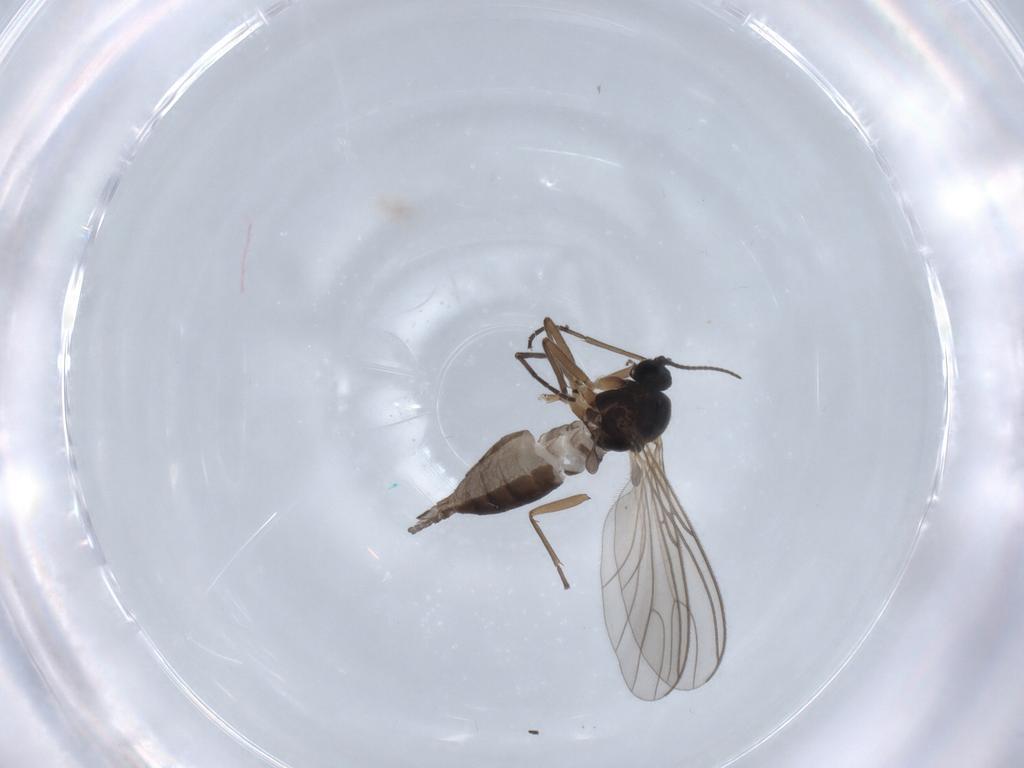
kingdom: Animalia
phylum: Arthropoda
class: Insecta
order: Diptera
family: Sciaridae
